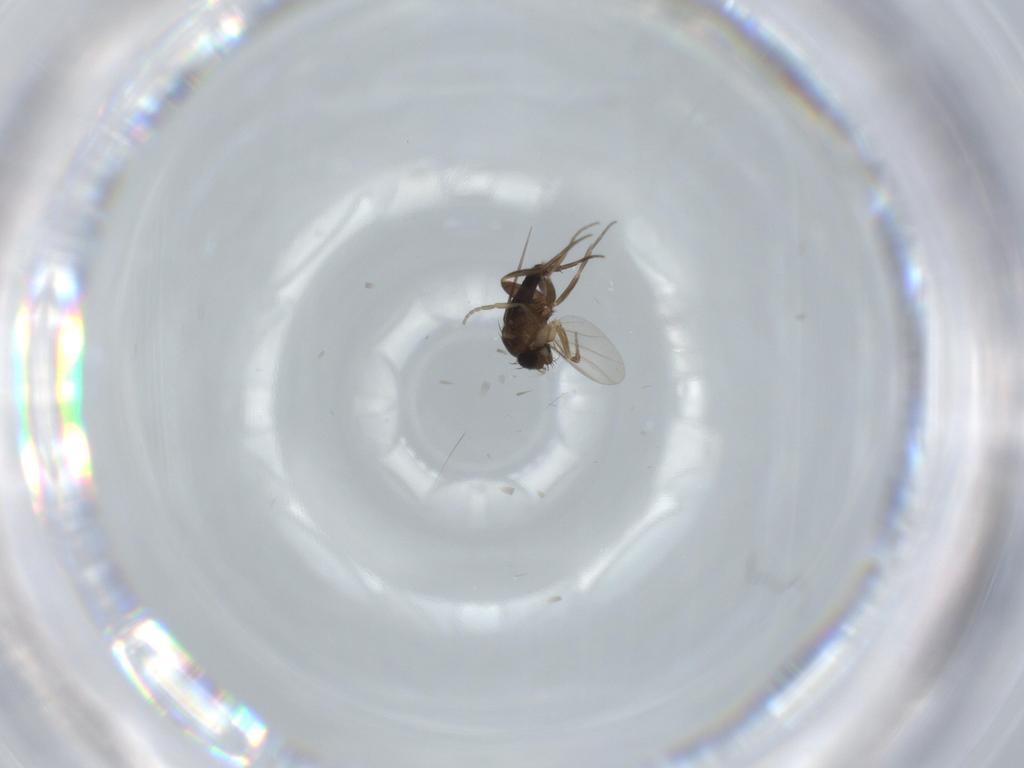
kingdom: Animalia
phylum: Arthropoda
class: Insecta
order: Diptera
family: Phoridae
